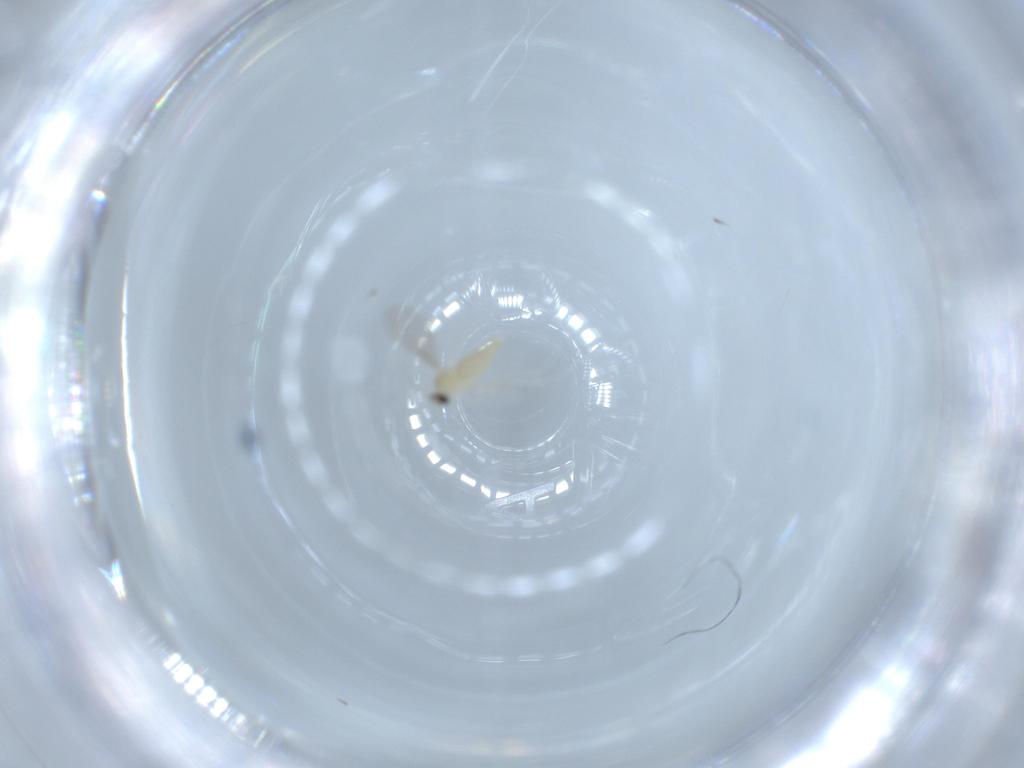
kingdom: Animalia
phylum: Arthropoda
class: Insecta
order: Diptera
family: Cecidomyiidae
